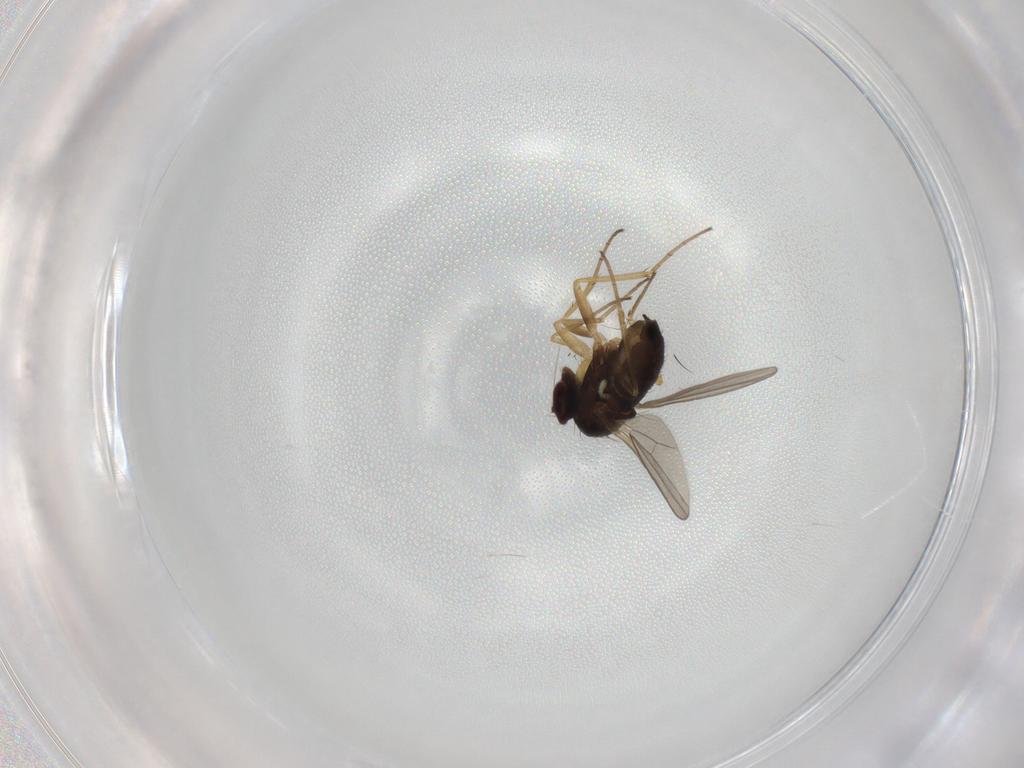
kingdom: Animalia
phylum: Arthropoda
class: Insecta
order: Diptera
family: Dolichopodidae
